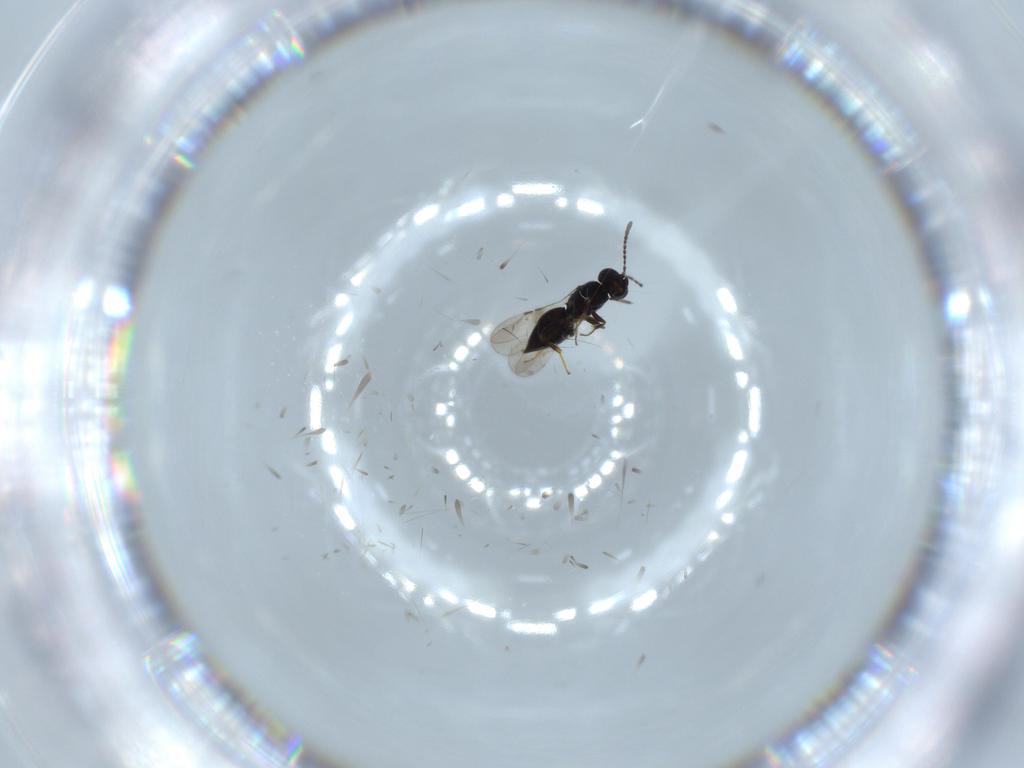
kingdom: Animalia
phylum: Arthropoda
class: Insecta
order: Hymenoptera
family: Ceraphronidae
